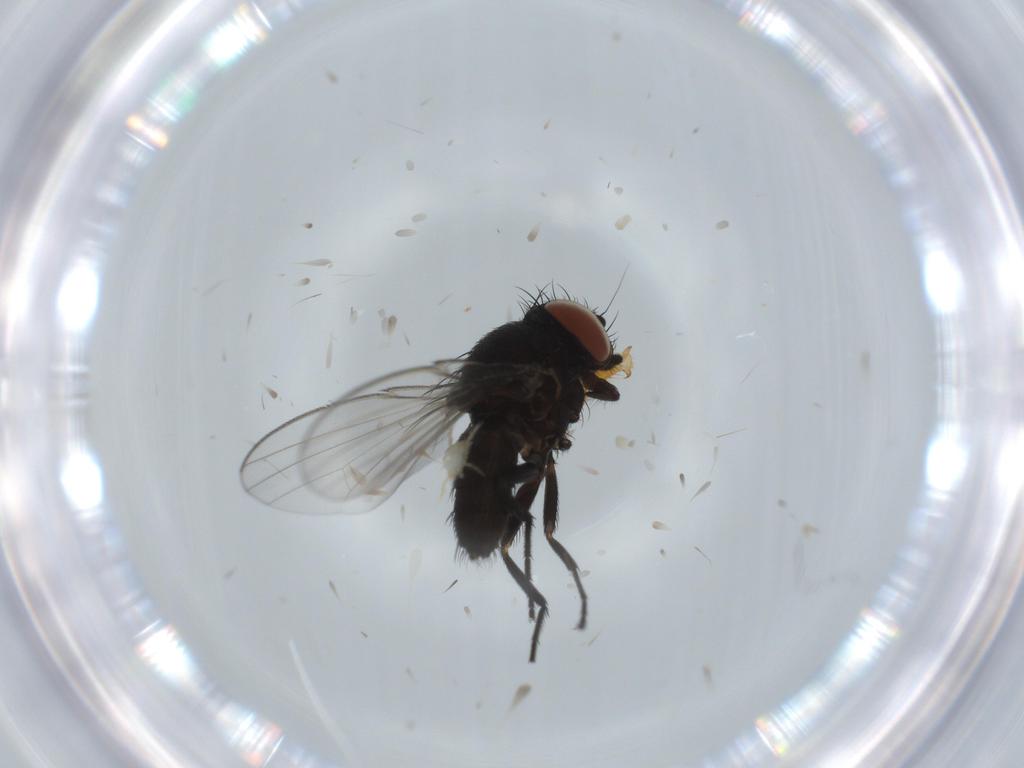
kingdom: Animalia
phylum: Arthropoda
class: Insecta
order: Diptera
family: Milichiidae
